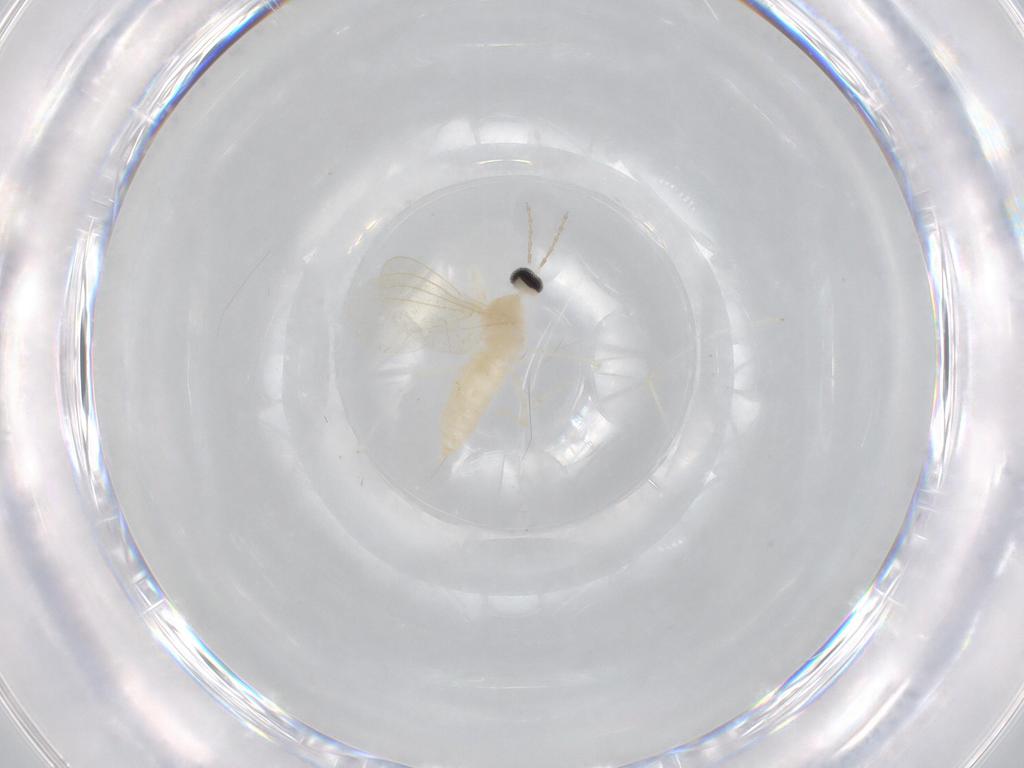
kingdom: Animalia
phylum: Arthropoda
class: Insecta
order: Diptera
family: Cecidomyiidae
